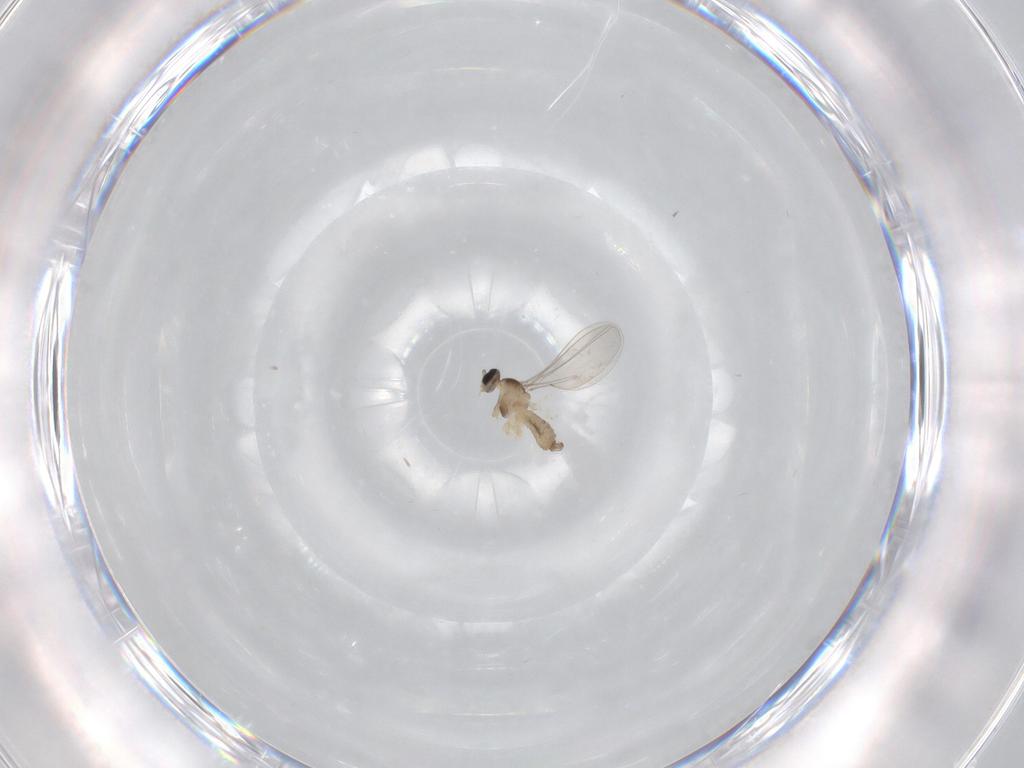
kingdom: Animalia
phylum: Arthropoda
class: Insecta
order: Diptera
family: Cecidomyiidae
